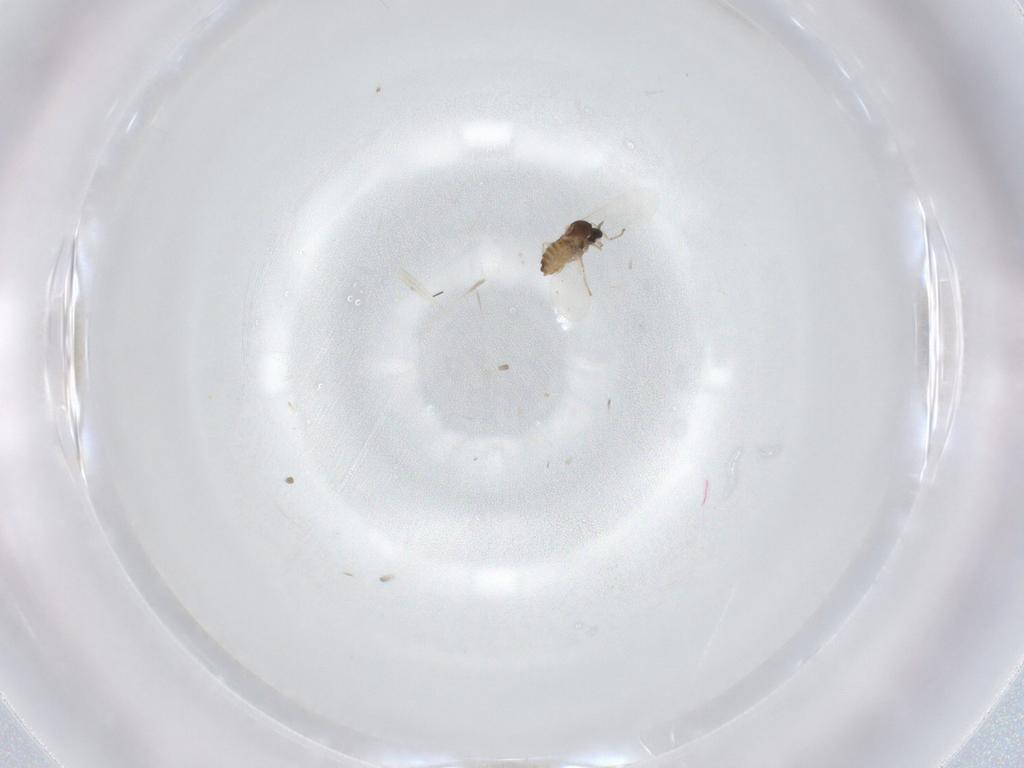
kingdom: Animalia
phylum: Arthropoda
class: Insecta
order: Diptera
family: Cecidomyiidae
